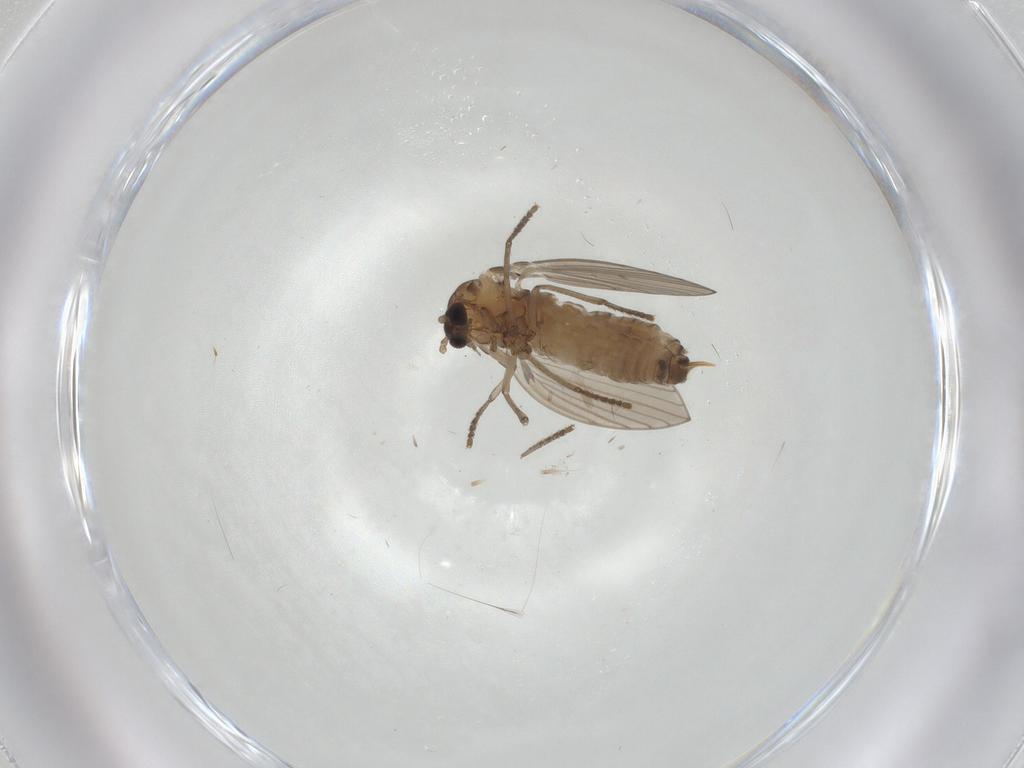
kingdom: Animalia
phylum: Arthropoda
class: Insecta
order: Diptera
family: Psychodidae
